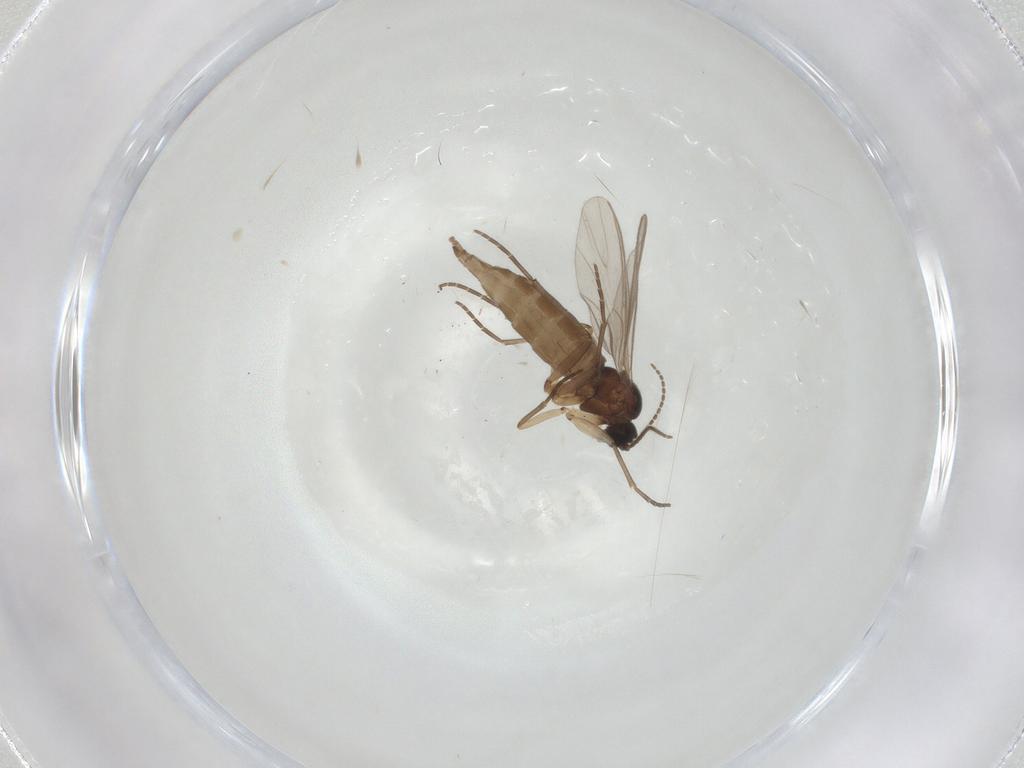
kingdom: Animalia
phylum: Arthropoda
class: Insecta
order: Diptera
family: Sciaridae
